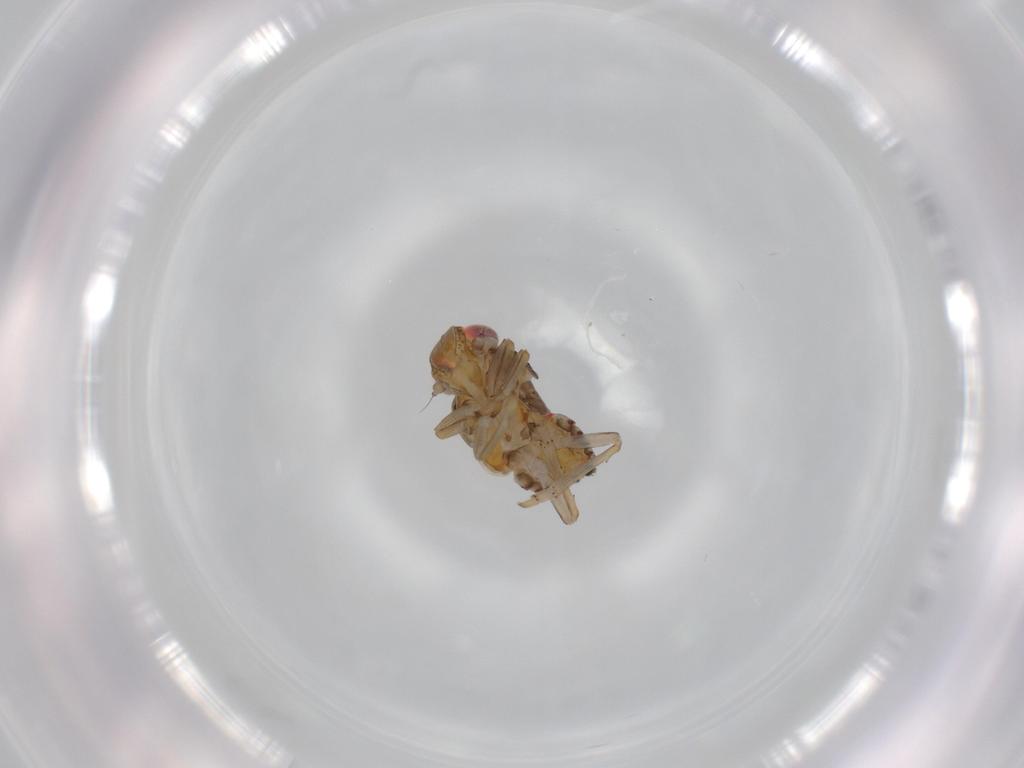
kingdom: Animalia
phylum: Arthropoda
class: Insecta
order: Hemiptera
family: Issidae
